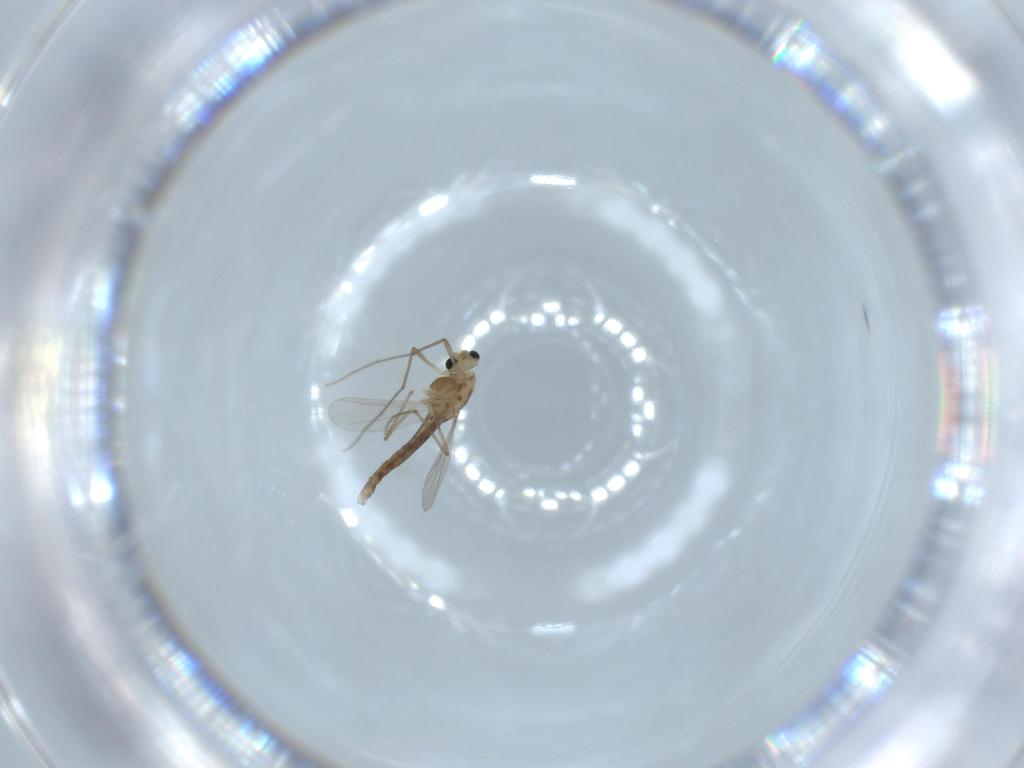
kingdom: Animalia
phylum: Arthropoda
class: Insecta
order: Diptera
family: Chironomidae
